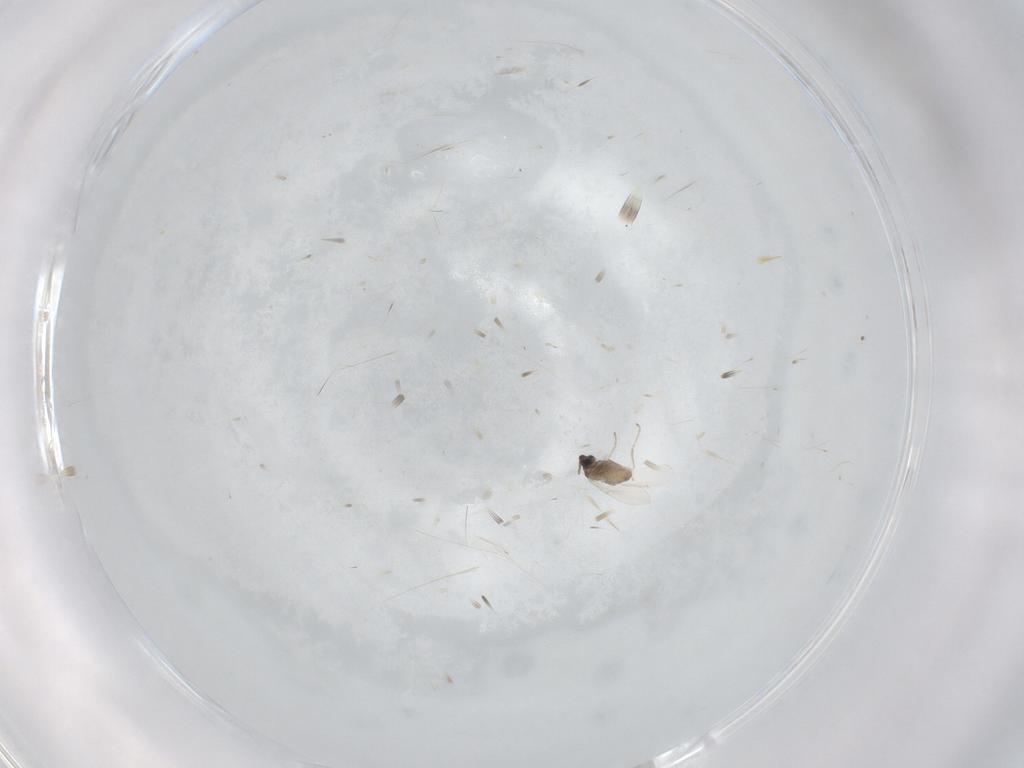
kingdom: Animalia
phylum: Arthropoda
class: Insecta
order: Diptera
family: Cecidomyiidae
